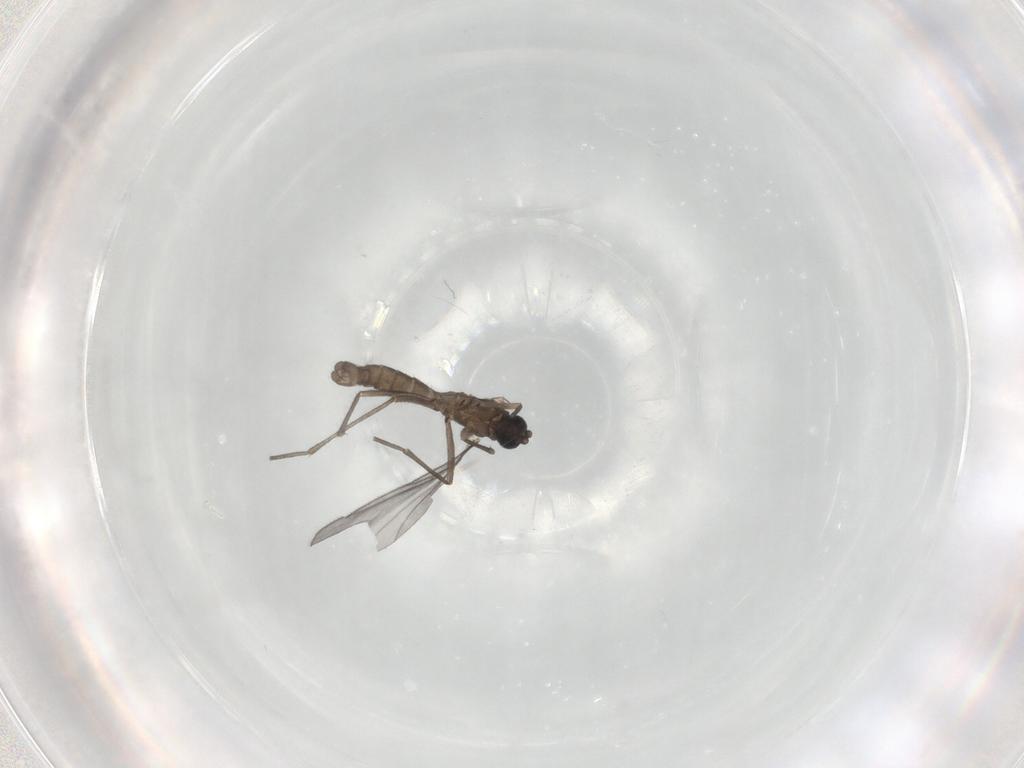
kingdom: Animalia
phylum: Arthropoda
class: Insecta
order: Diptera
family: Sciaridae
